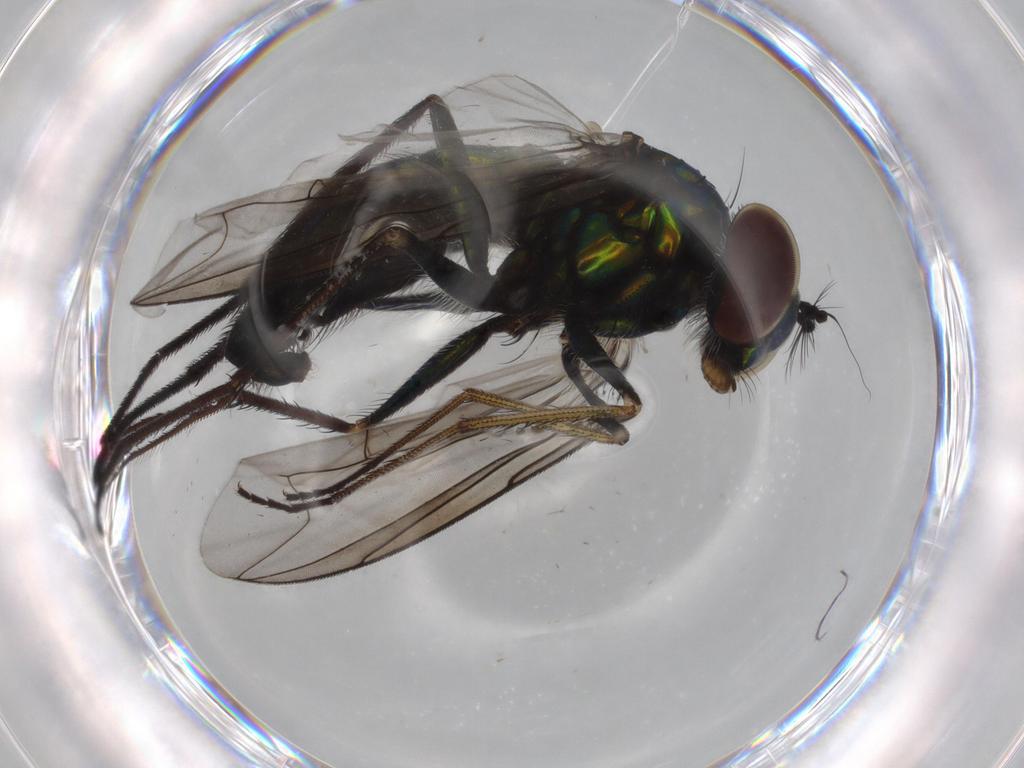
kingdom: Animalia
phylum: Arthropoda
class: Insecta
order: Diptera
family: Dolichopodidae
